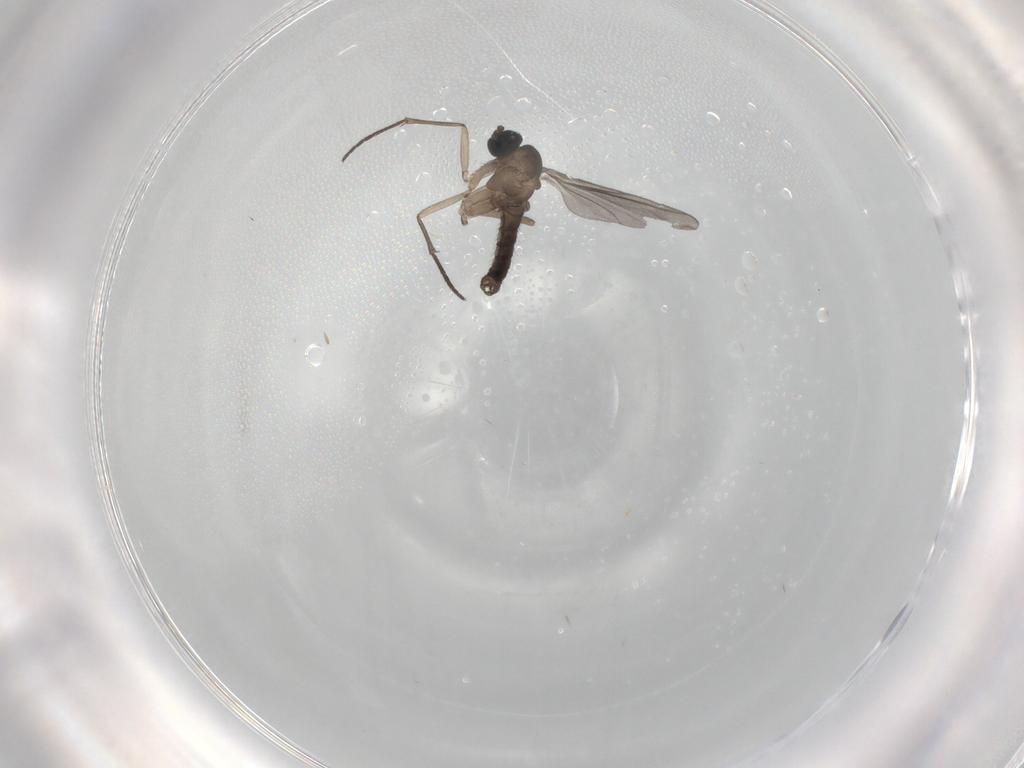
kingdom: Animalia
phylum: Arthropoda
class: Insecta
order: Diptera
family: Sciaridae
